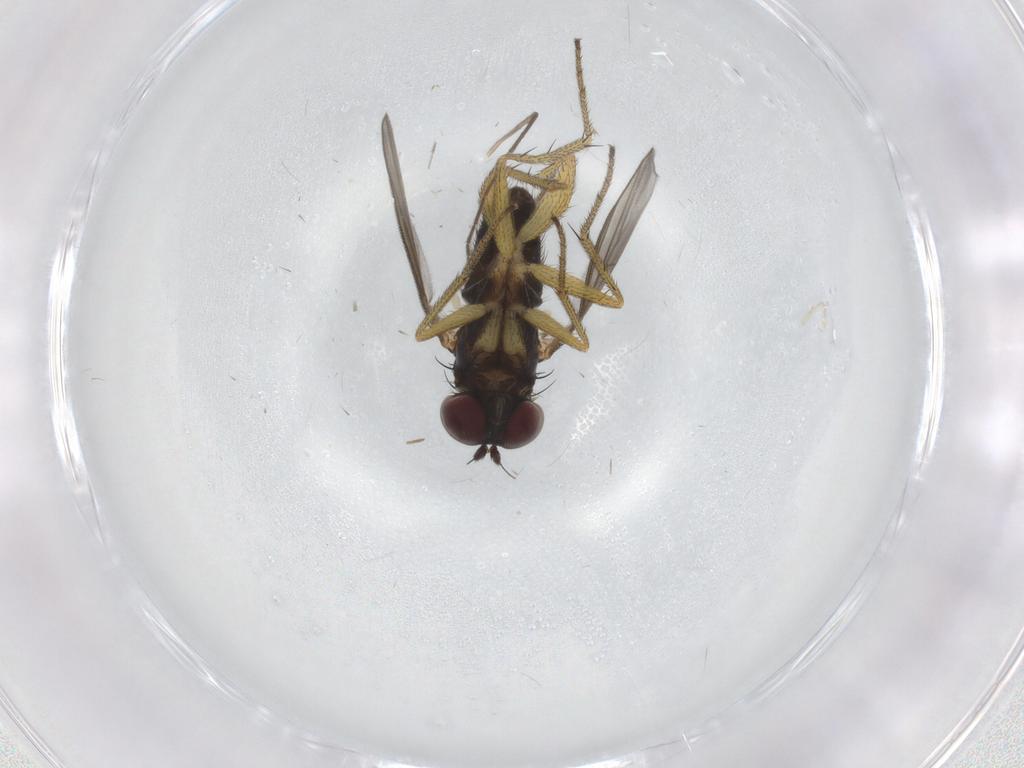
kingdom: Animalia
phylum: Arthropoda
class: Insecta
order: Diptera
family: Chironomidae
